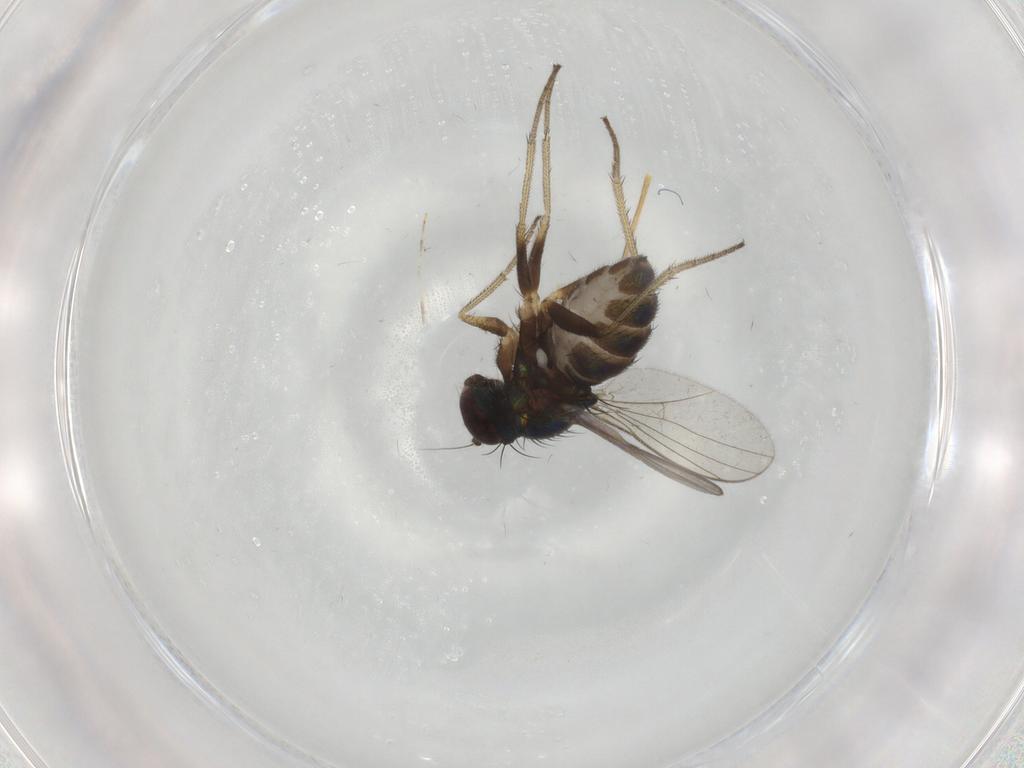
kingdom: Animalia
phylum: Arthropoda
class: Insecta
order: Diptera
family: Dolichopodidae
